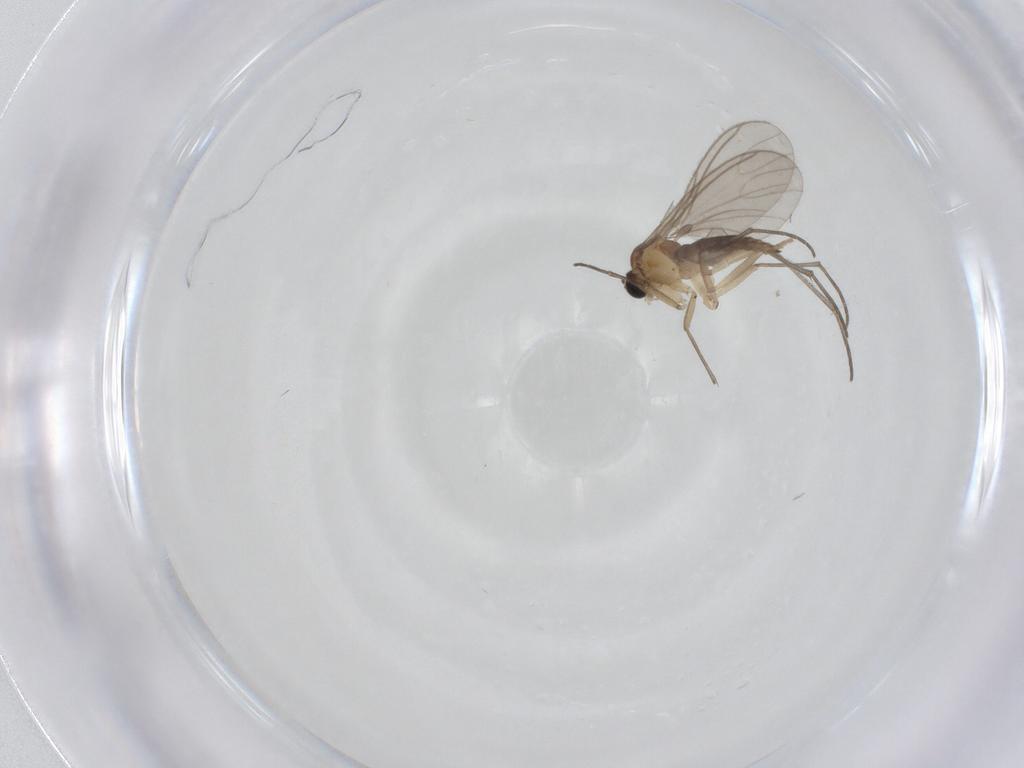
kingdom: Animalia
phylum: Arthropoda
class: Insecta
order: Diptera
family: Sciaridae
